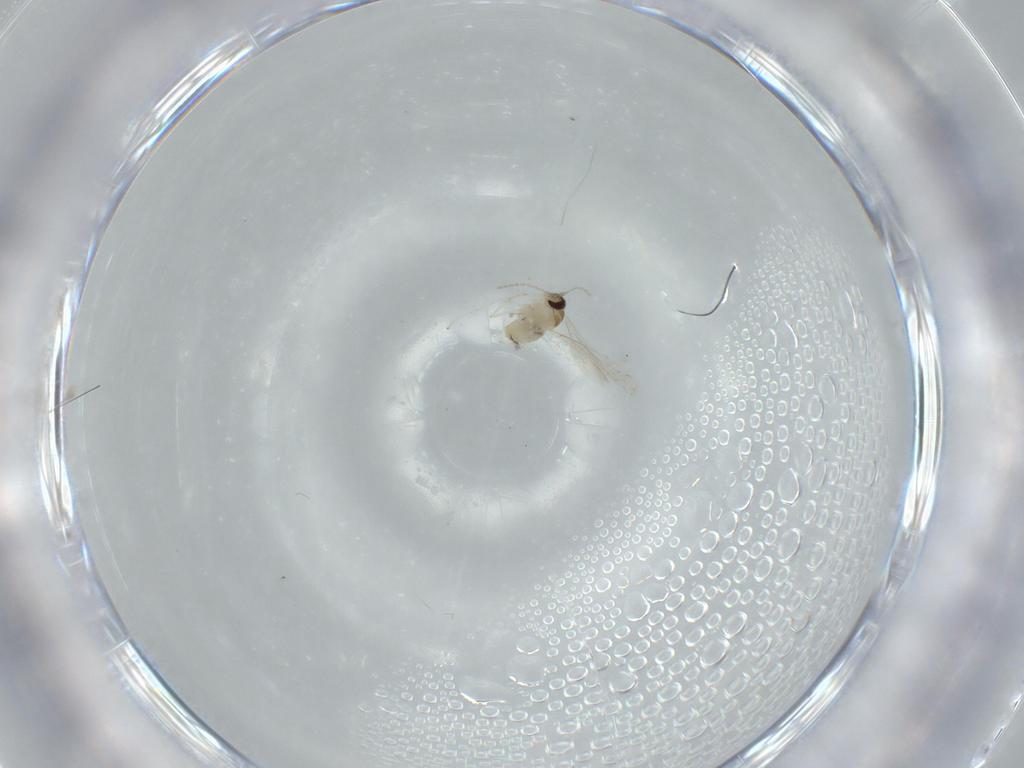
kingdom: Animalia
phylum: Arthropoda
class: Insecta
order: Diptera
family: Cecidomyiidae
